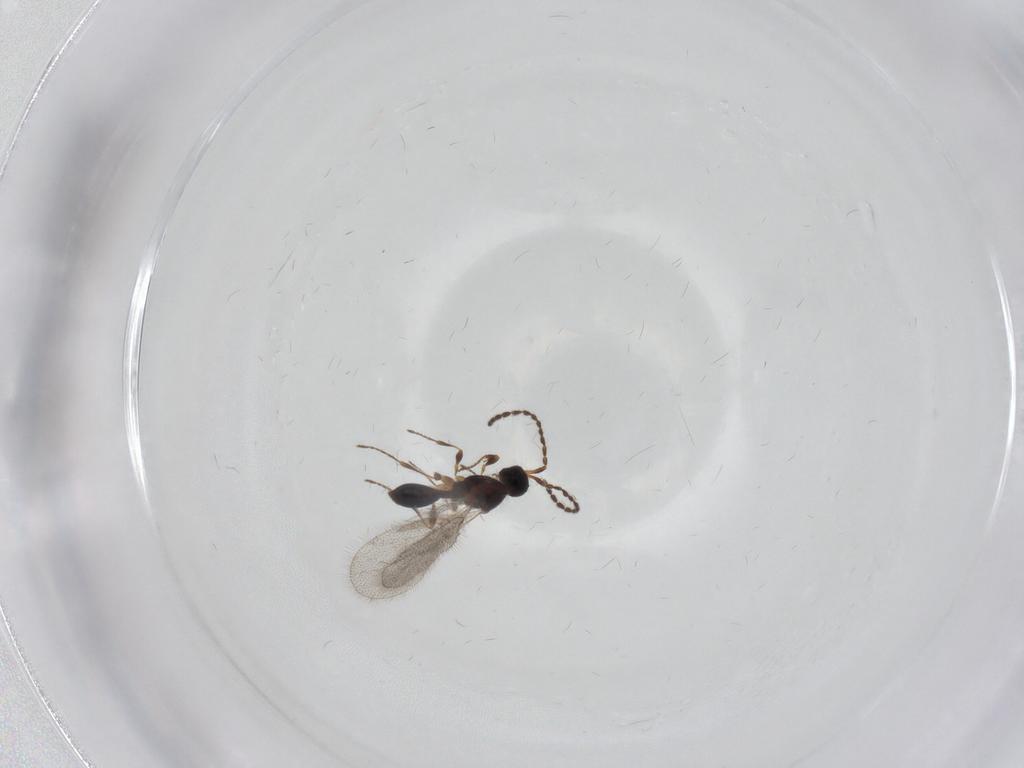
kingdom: Animalia
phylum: Arthropoda
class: Insecta
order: Hymenoptera
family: Diapriidae
